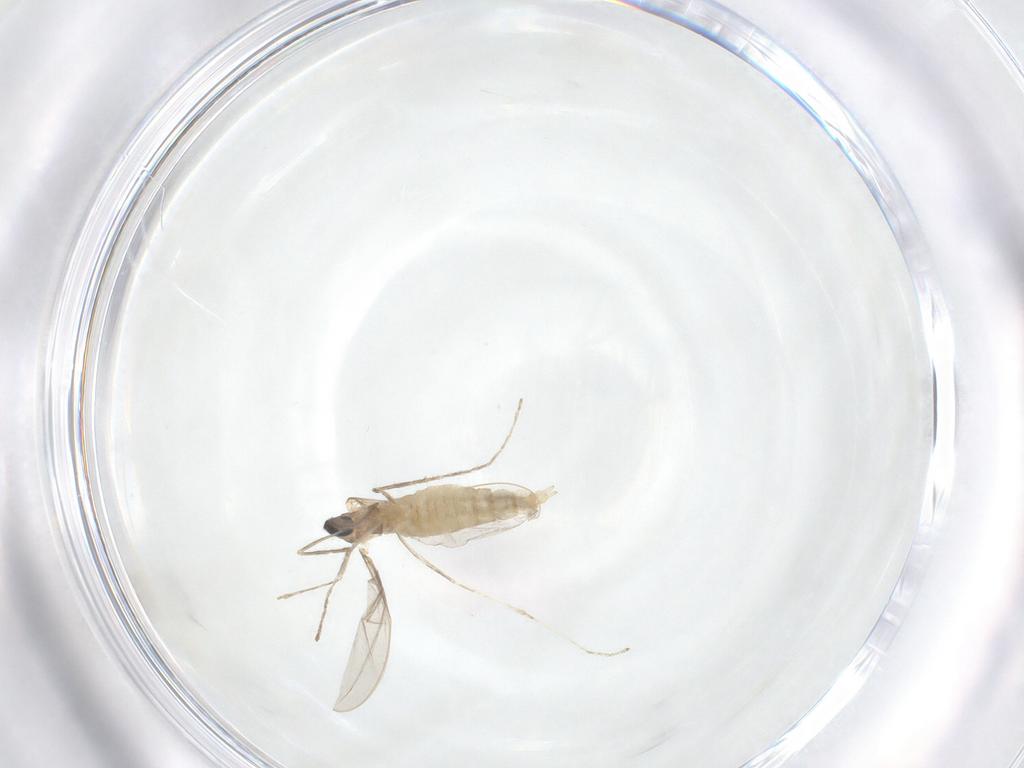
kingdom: Animalia
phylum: Arthropoda
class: Insecta
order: Diptera
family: Cecidomyiidae
